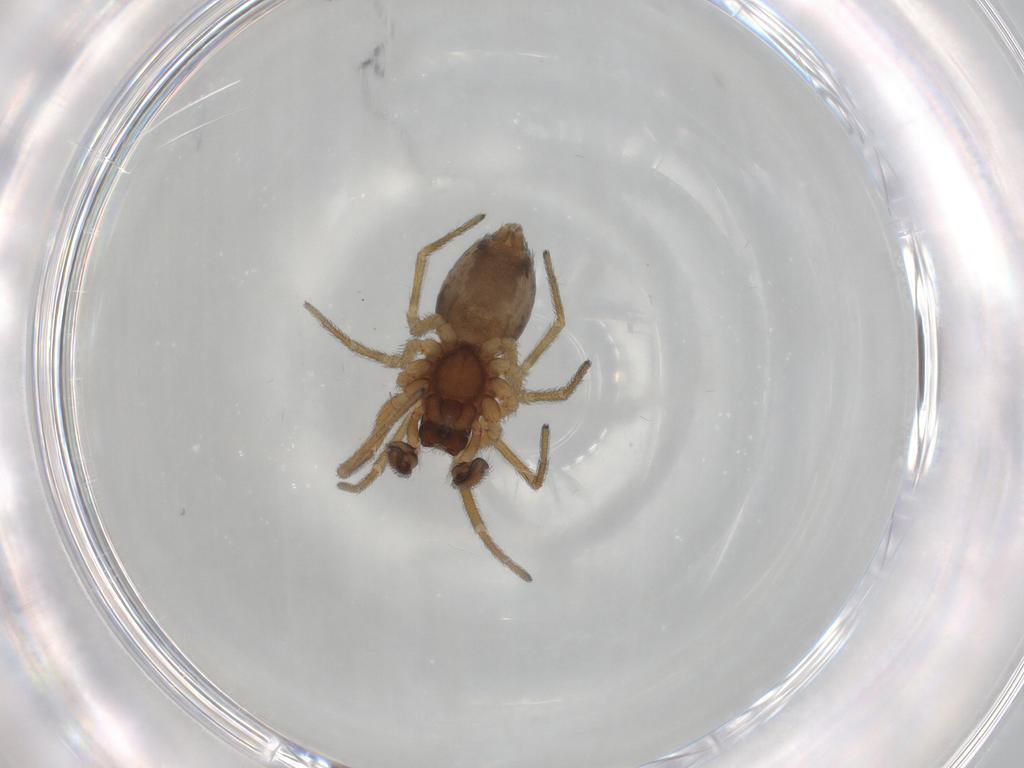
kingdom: Animalia
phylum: Arthropoda
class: Arachnida
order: Araneae
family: Dictynidae
